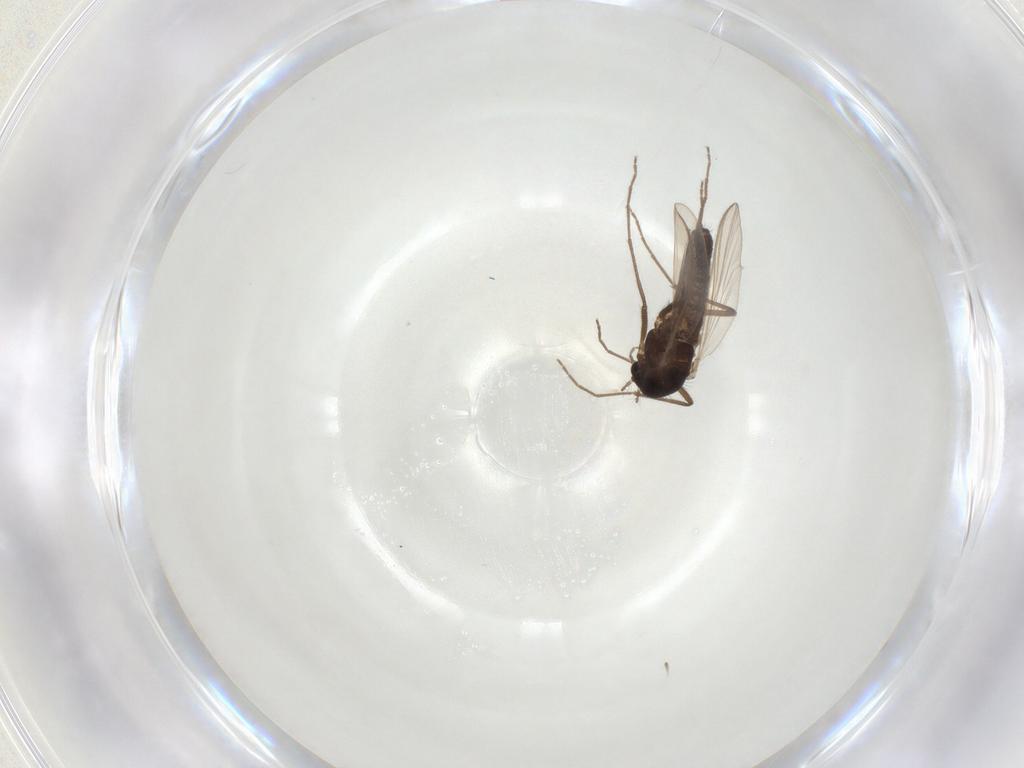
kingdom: Animalia
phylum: Arthropoda
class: Insecta
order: Diptera
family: Chironomidae
